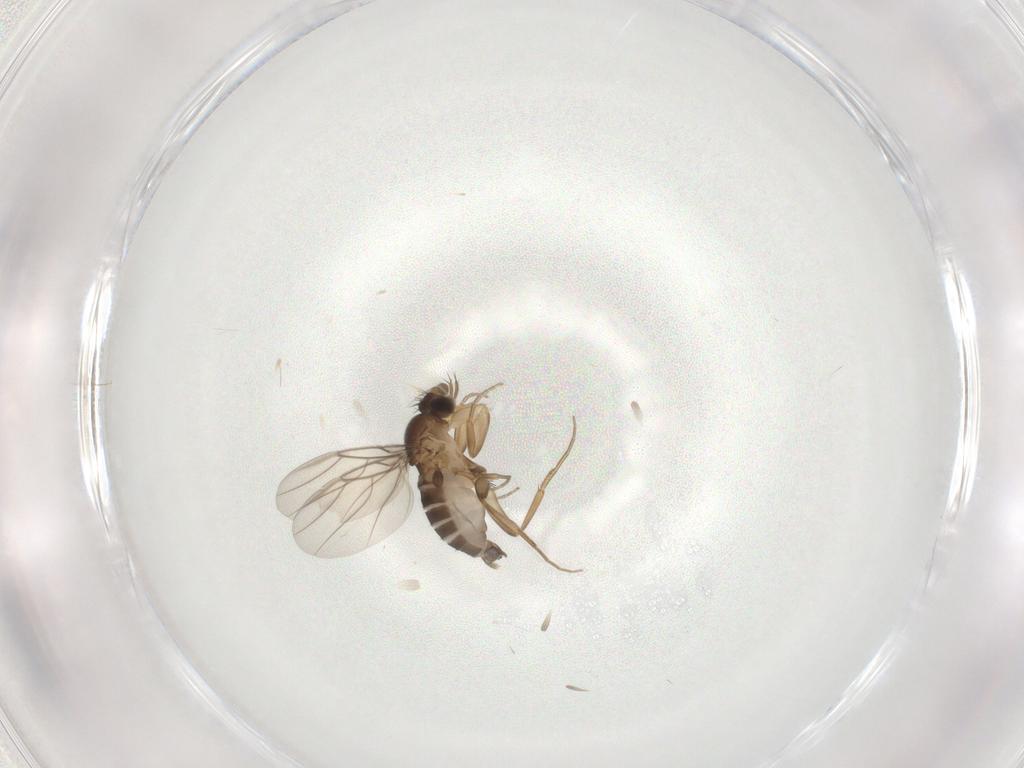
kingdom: Animalia
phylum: Arthropoda
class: Insecta
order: Diptera
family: Phoridae
